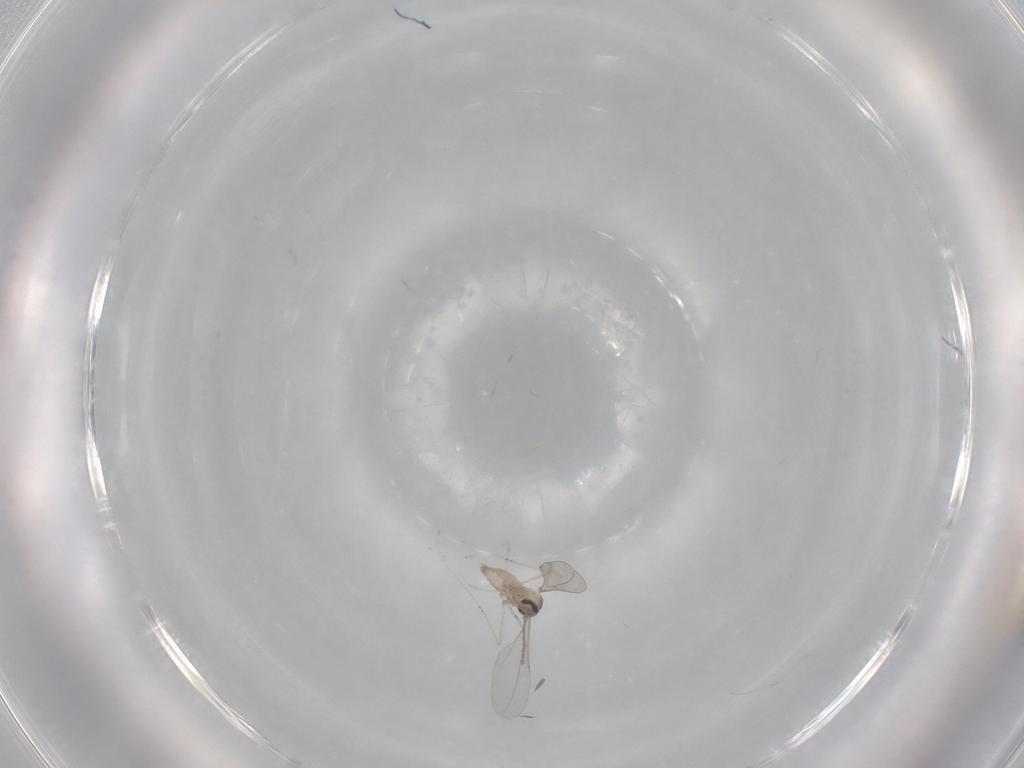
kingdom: Animalia
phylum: Arthropoda
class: Insecta
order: Diptera
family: Cecidomyiidae
